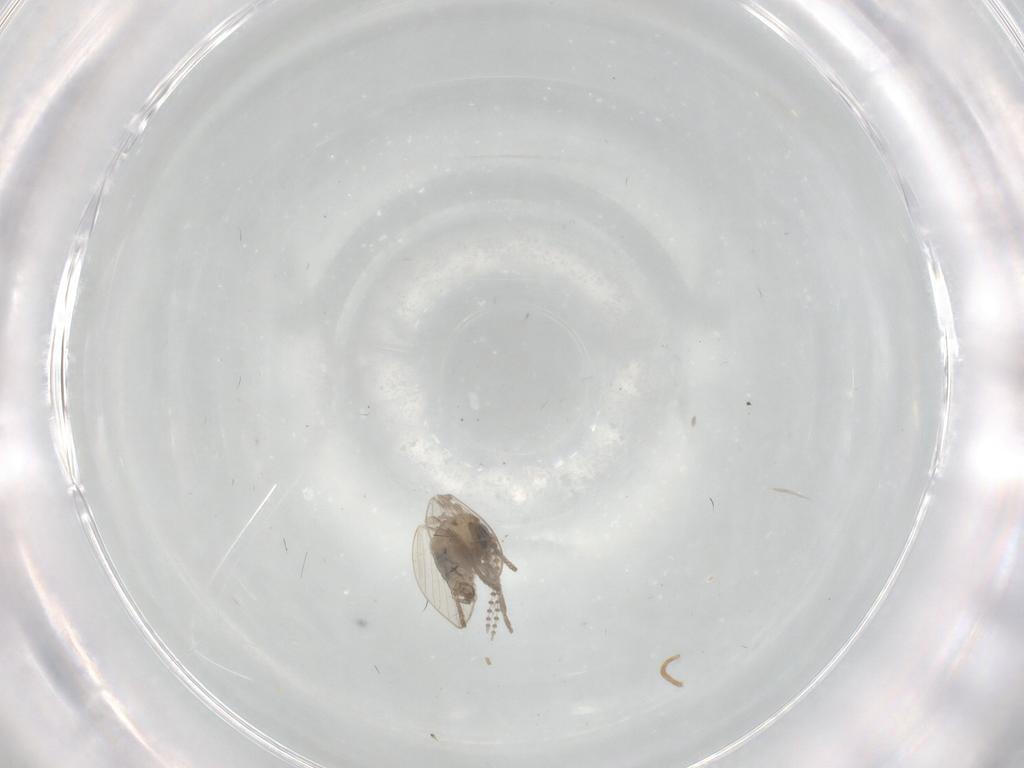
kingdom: Animalia
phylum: Arthropoda
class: Insecta
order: Diptera
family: Psychodidae
